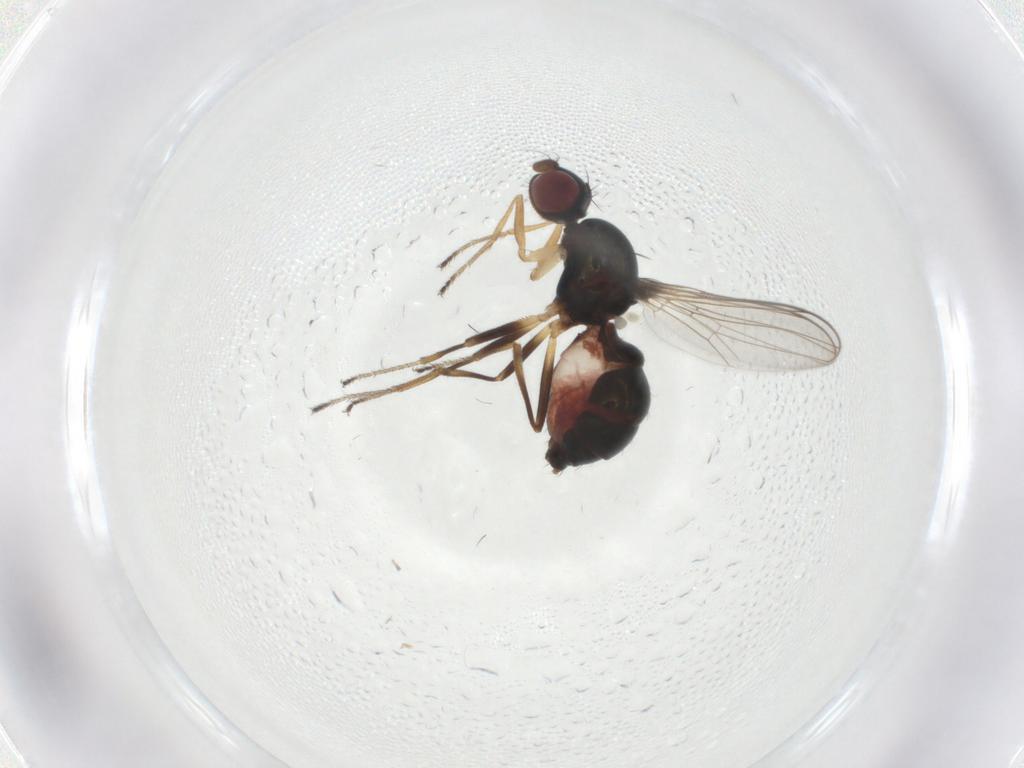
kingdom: Animalia
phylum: Arthropoda
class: Insecta
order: Diptera
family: Sepsidae
